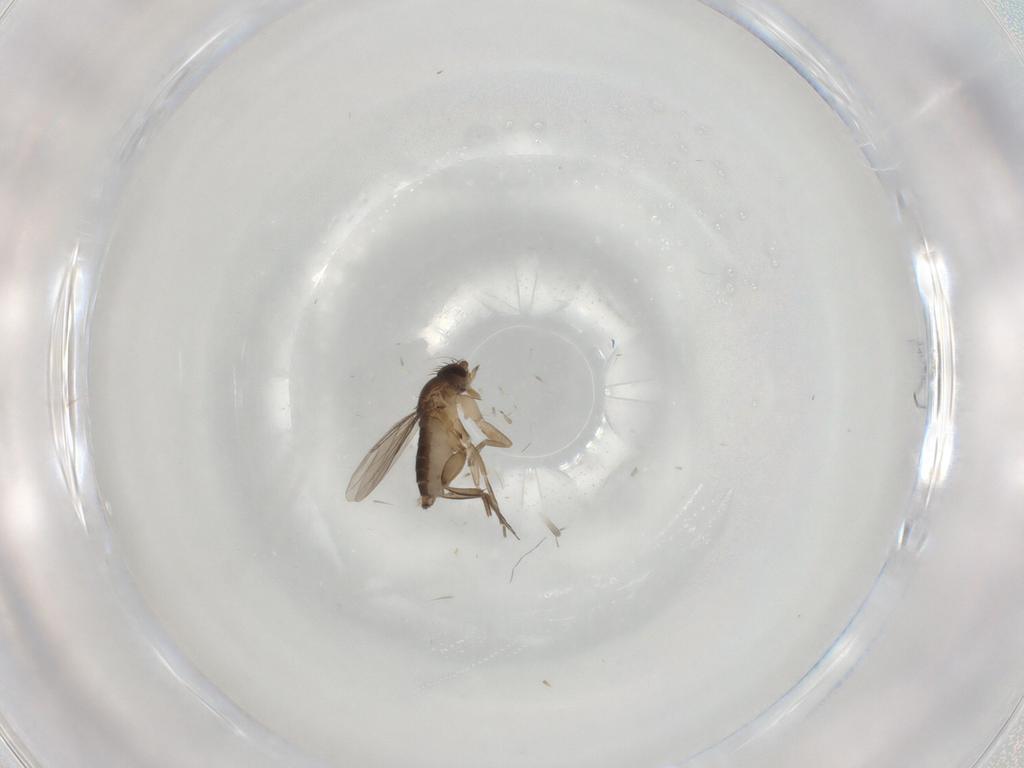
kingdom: Animalia
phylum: Arthropoda
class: Insecta
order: Diptera
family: Phoridae
